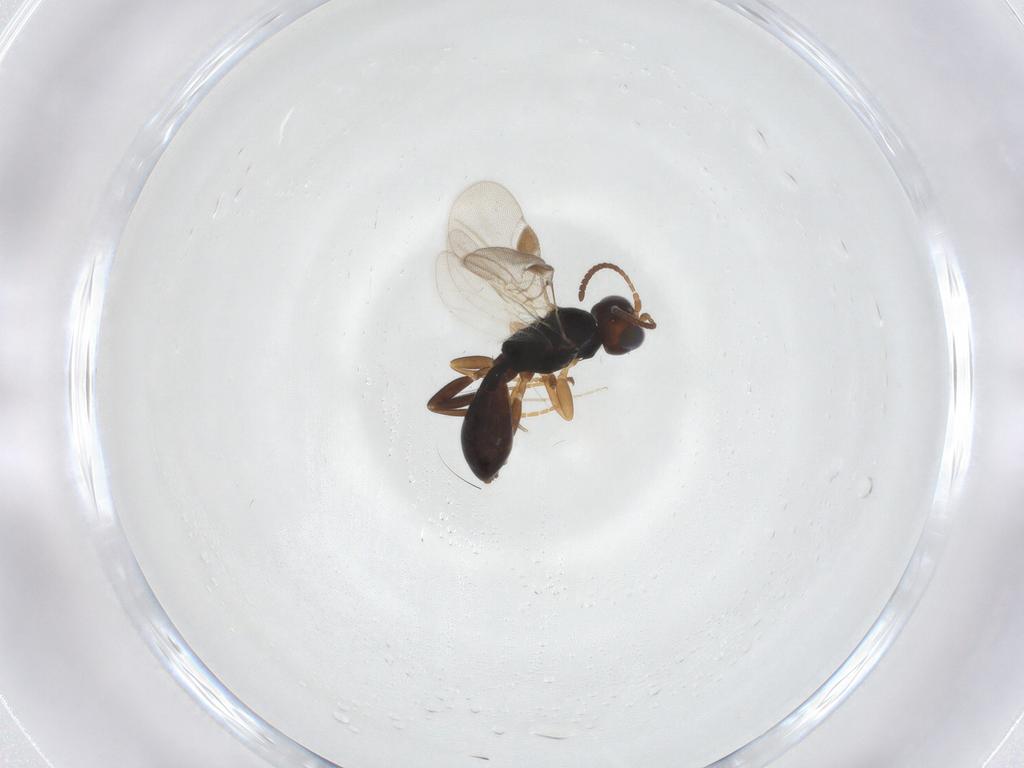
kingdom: Animalia
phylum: Arthropoda
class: Insecta
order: Hymenoptera
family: Braconidae
